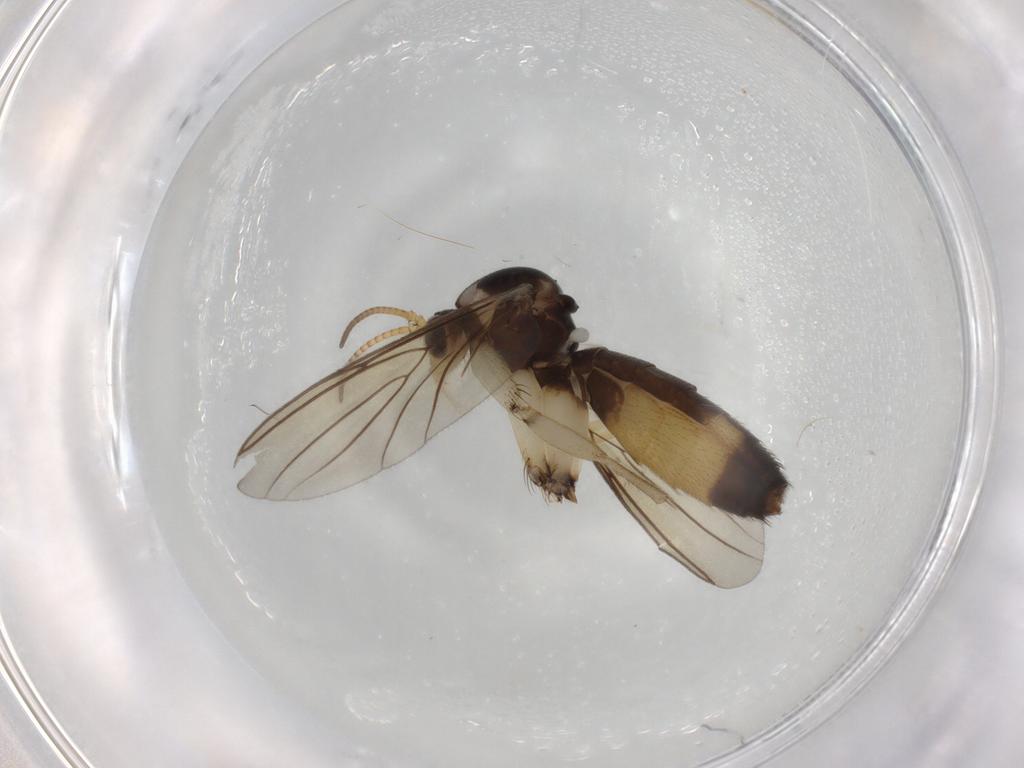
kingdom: Animalia
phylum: Arthropoda
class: Insecta
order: Diptera
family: Mycetophilidae
